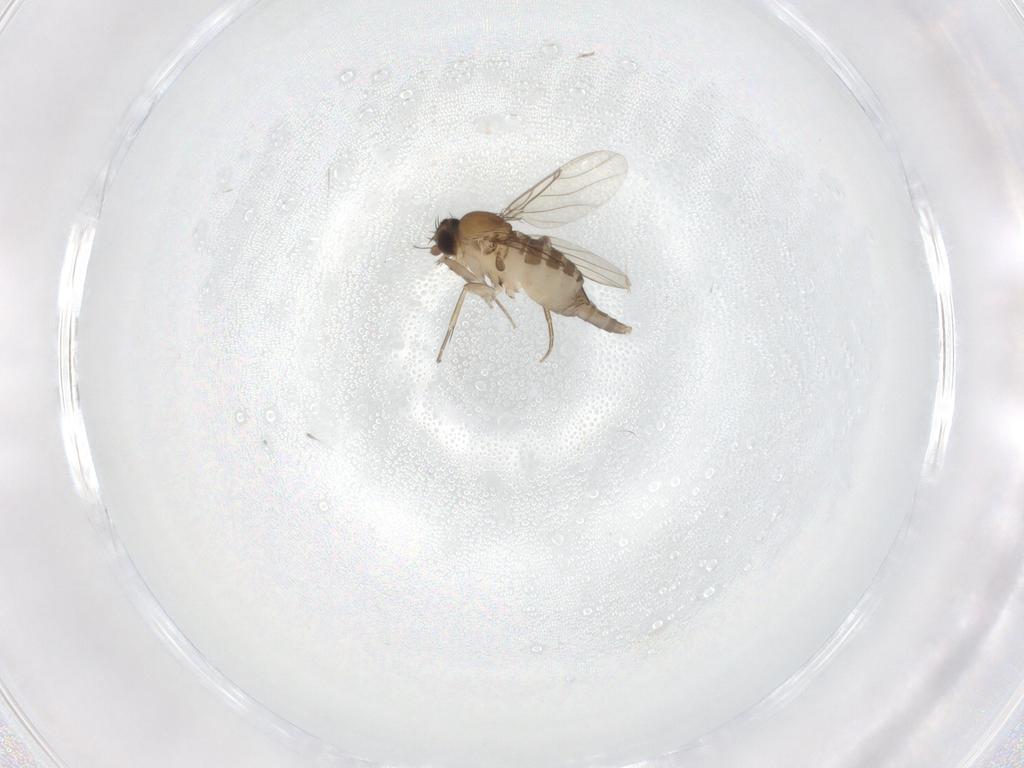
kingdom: Animalia
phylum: Arthropoda
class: Insecta
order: Diptera
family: Phoridae
